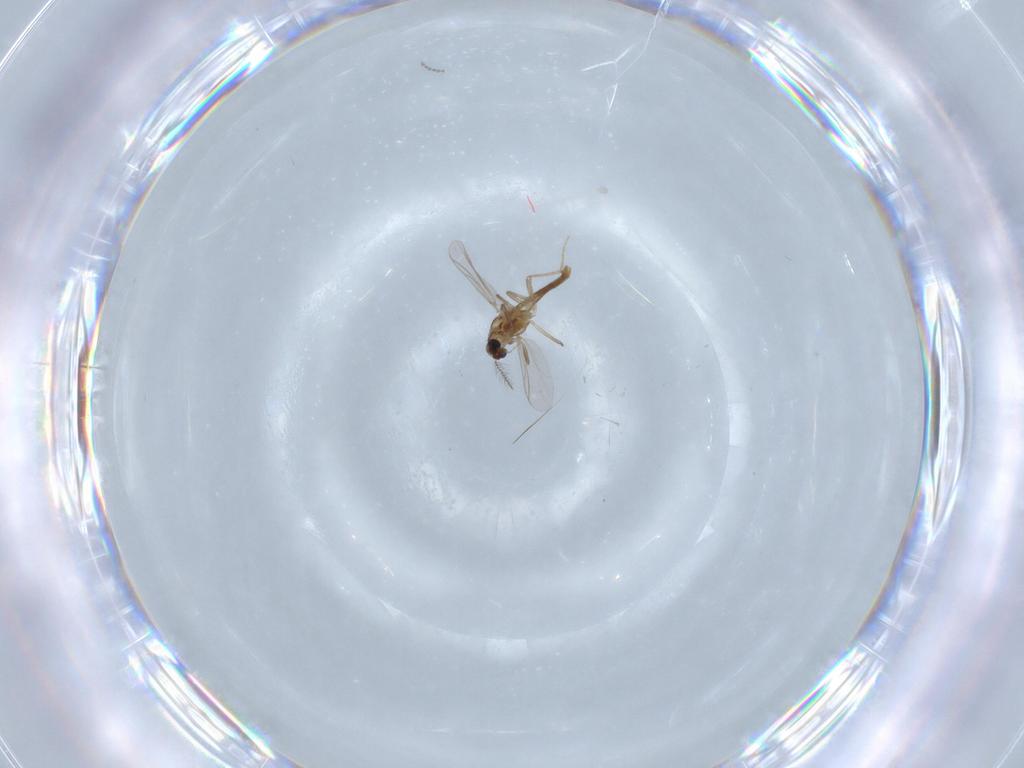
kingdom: Animalia
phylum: Arthropoda
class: Insecta
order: Diptera
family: Chironomidae
